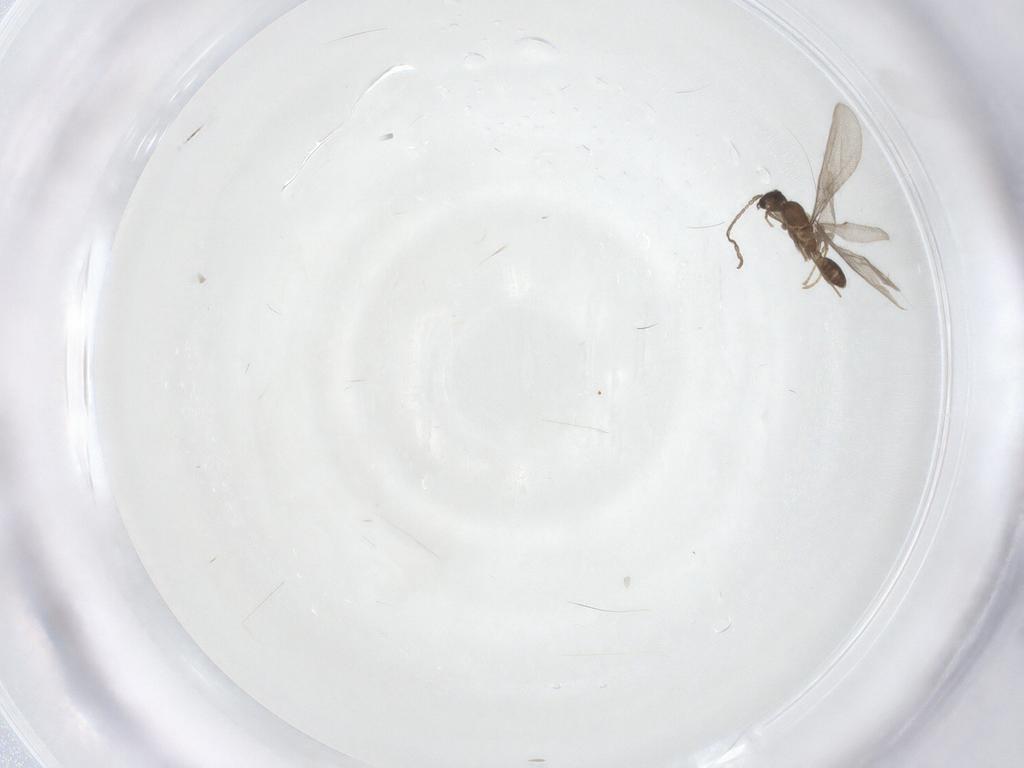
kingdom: Animalia
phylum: Arthropoda
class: Insecta
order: Hymenoptera
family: Formicidae
